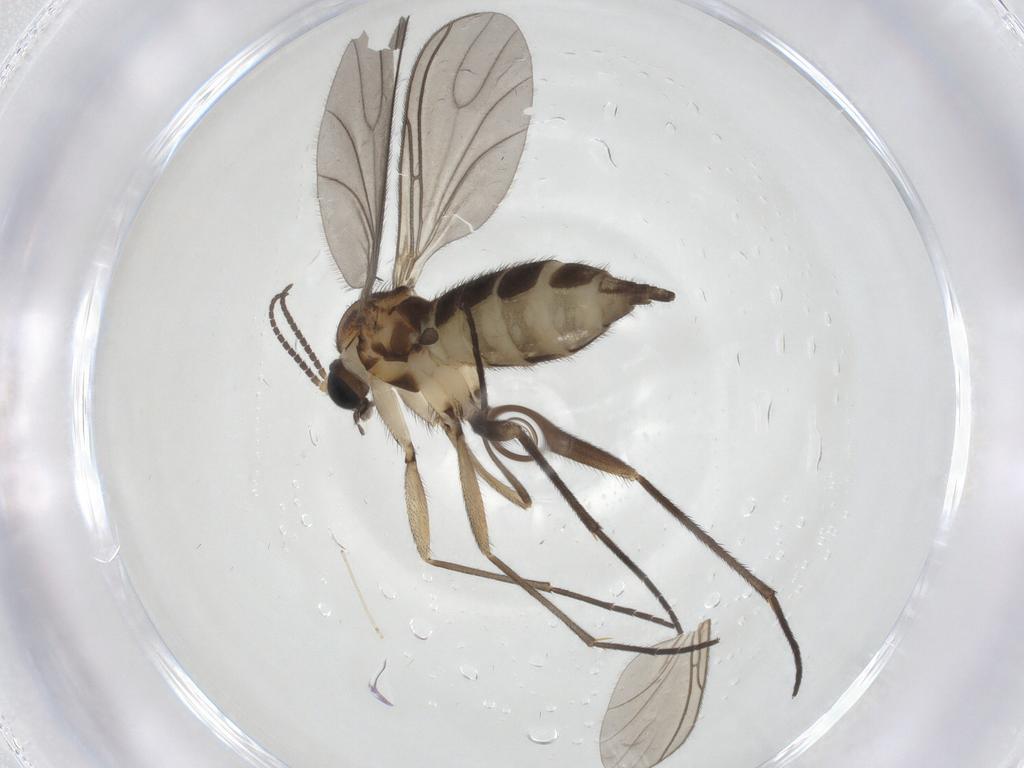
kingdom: Animalia
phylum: Arthropoda
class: Insecta
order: Diptera
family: Sciaridae
